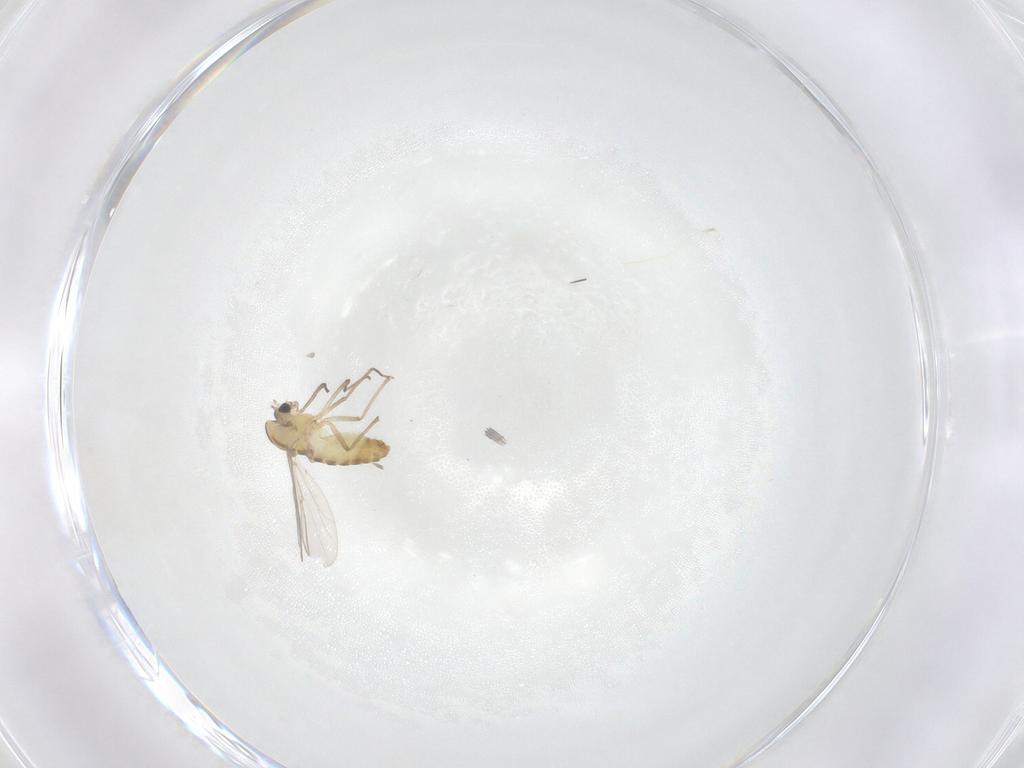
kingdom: Animalia
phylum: Arthropoda
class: Insecta
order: Diptera
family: Chironomidae
